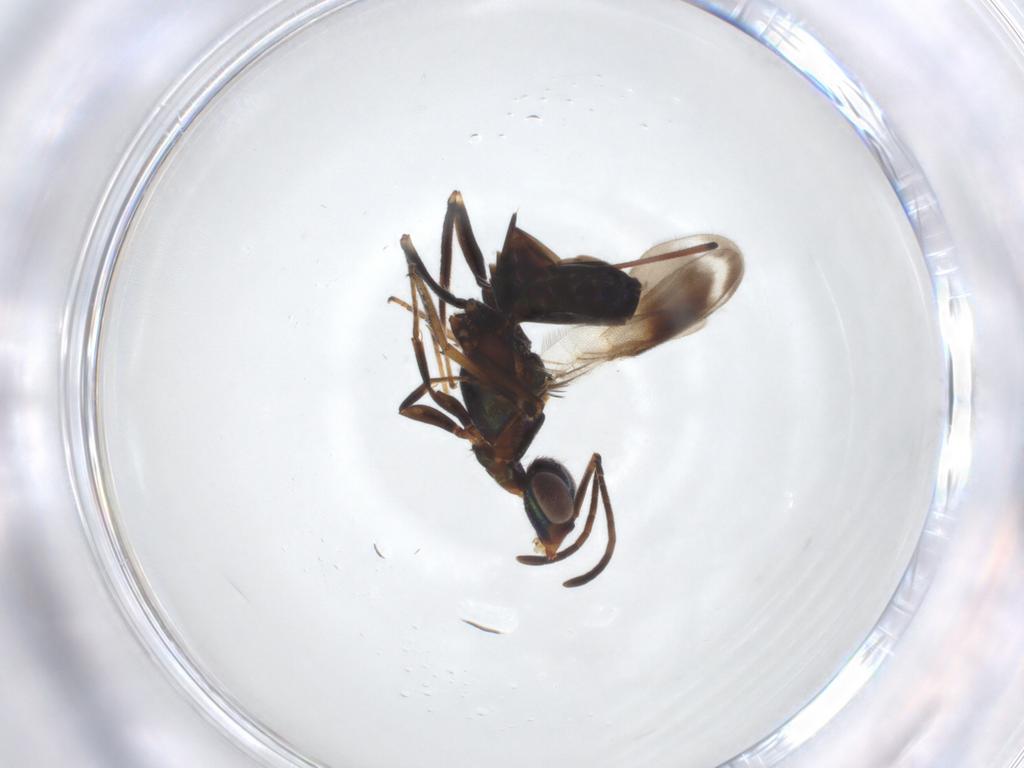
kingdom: Animalia
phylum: Arthropoda
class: Insecta
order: Hymenoptera
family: Eupelmidae
